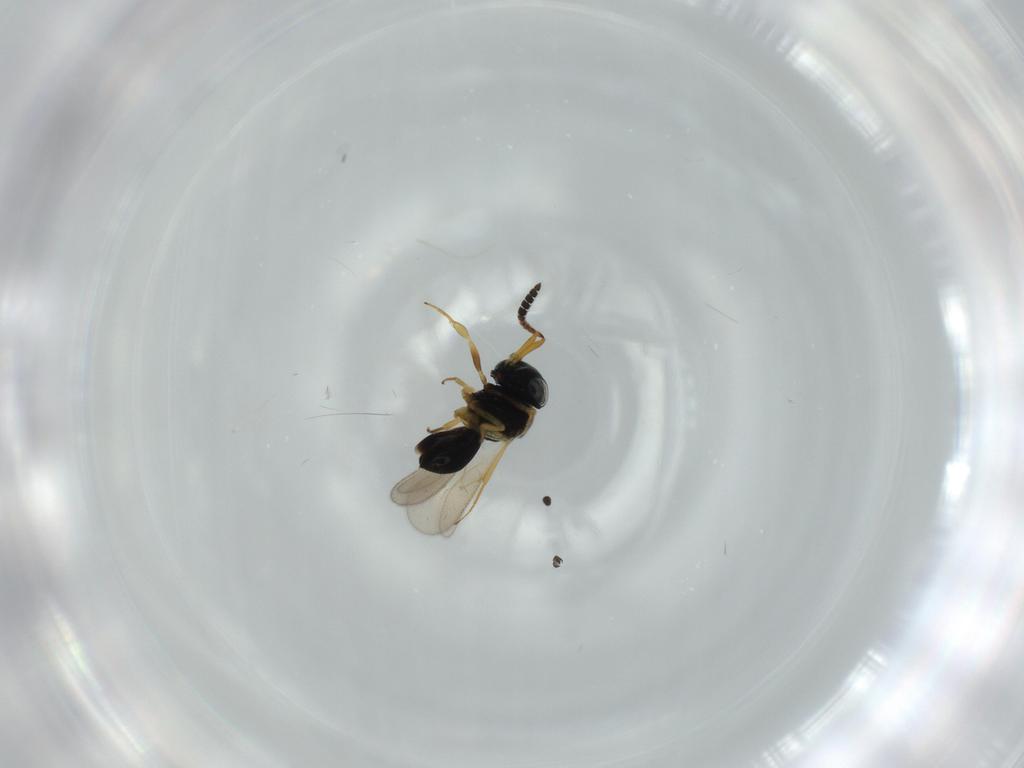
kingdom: Animalia
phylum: Arthropoda
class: Insecta
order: Hymenoptera
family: Scelionidae
